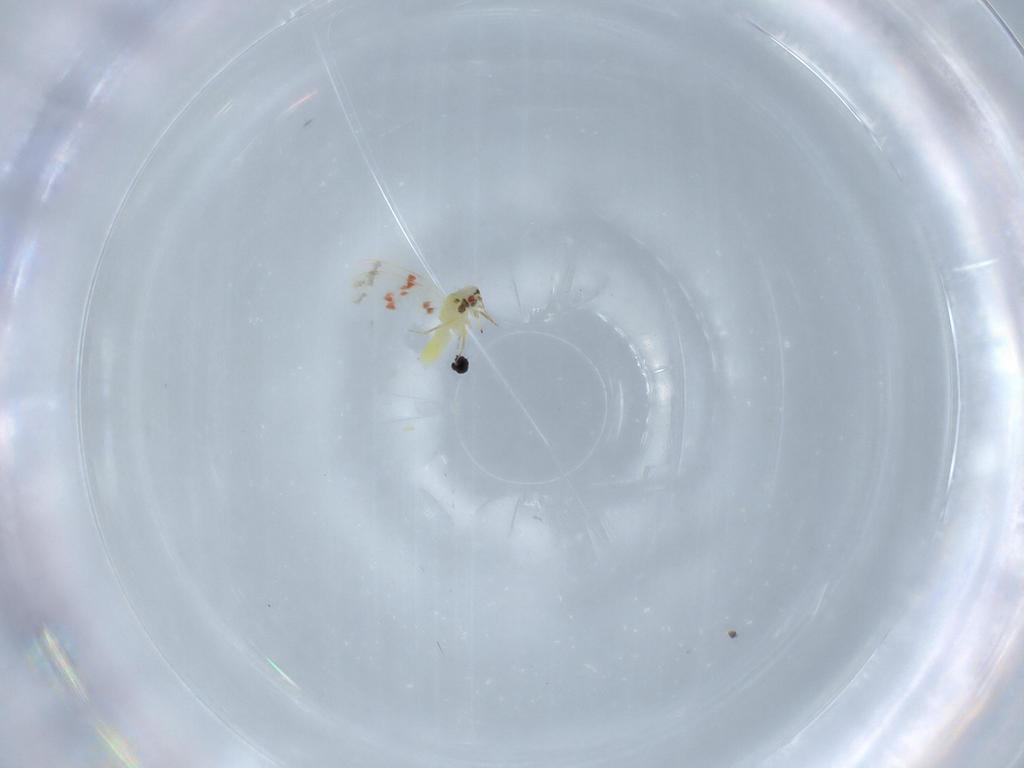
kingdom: Animalia
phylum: Arthropoda
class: Insecta
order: Hemiptera
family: Aleyrodidae
